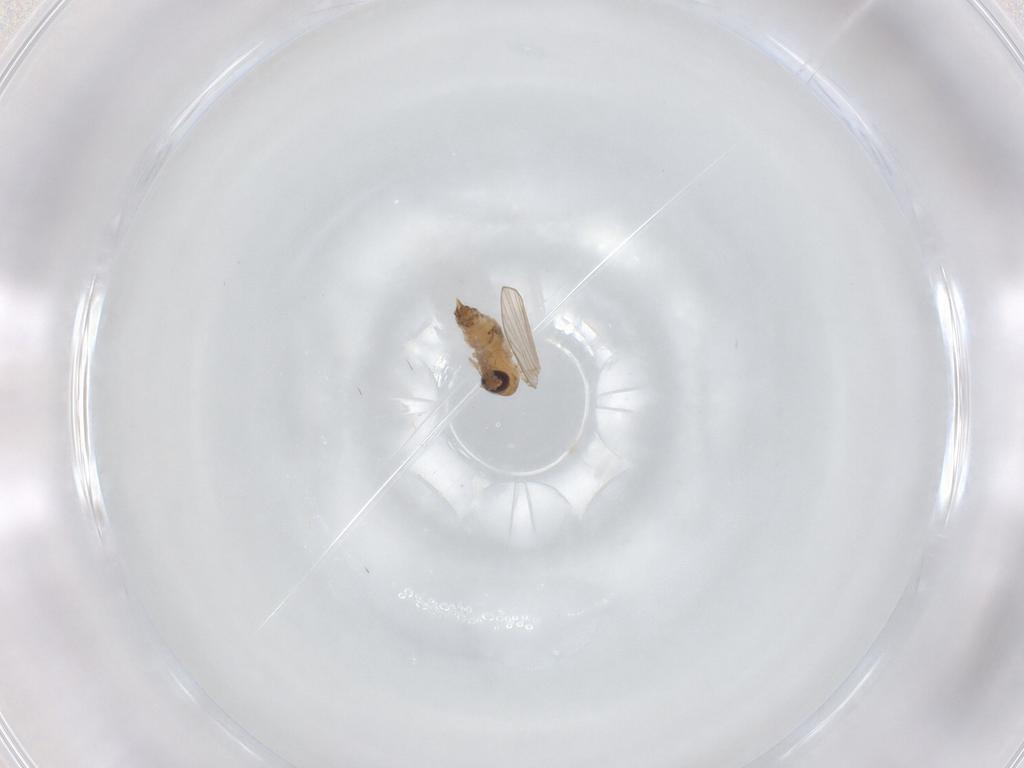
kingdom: Animalia
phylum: Arthropoda
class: Insecta
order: Diptera
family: Psychodidae
